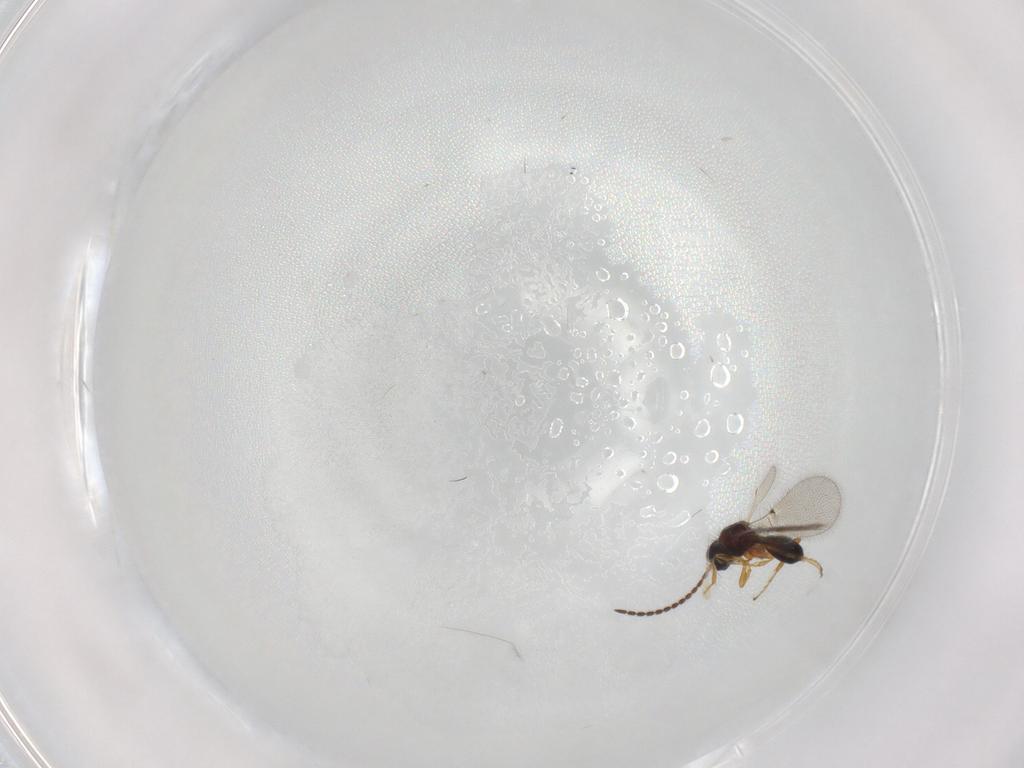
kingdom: Animalia
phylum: Arthropoda
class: Insecta
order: Hymenoptera
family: Diapriidae
